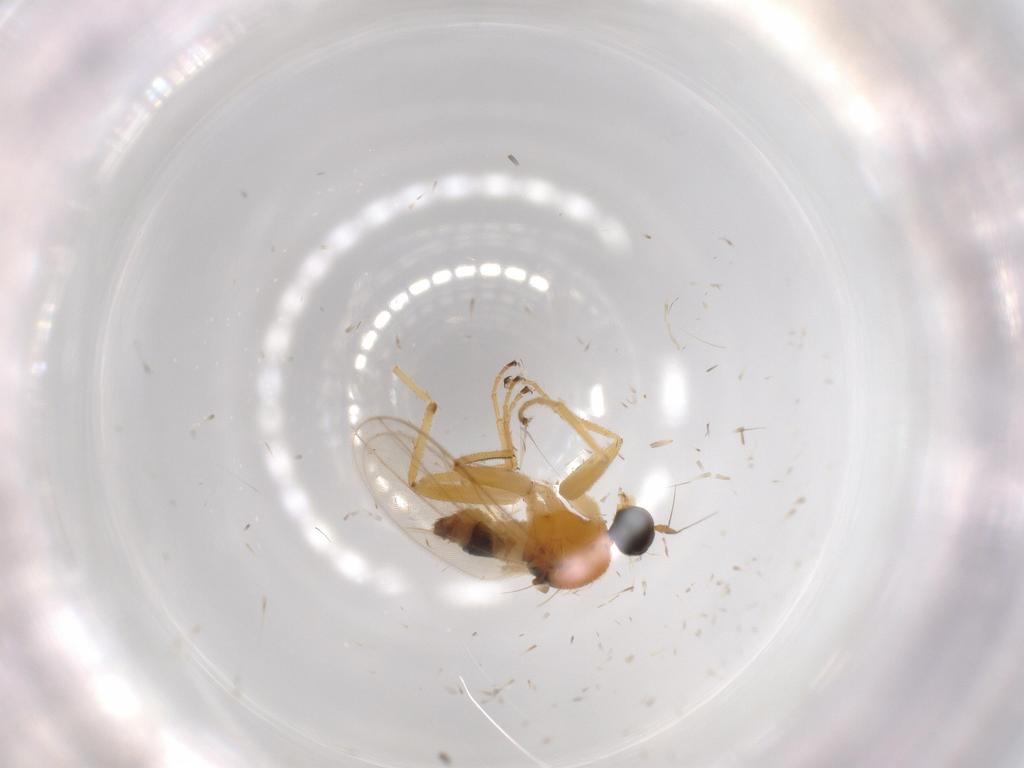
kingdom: Animalia
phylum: Arthropoda
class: Insecta
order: Diptera
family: Hybotidae
